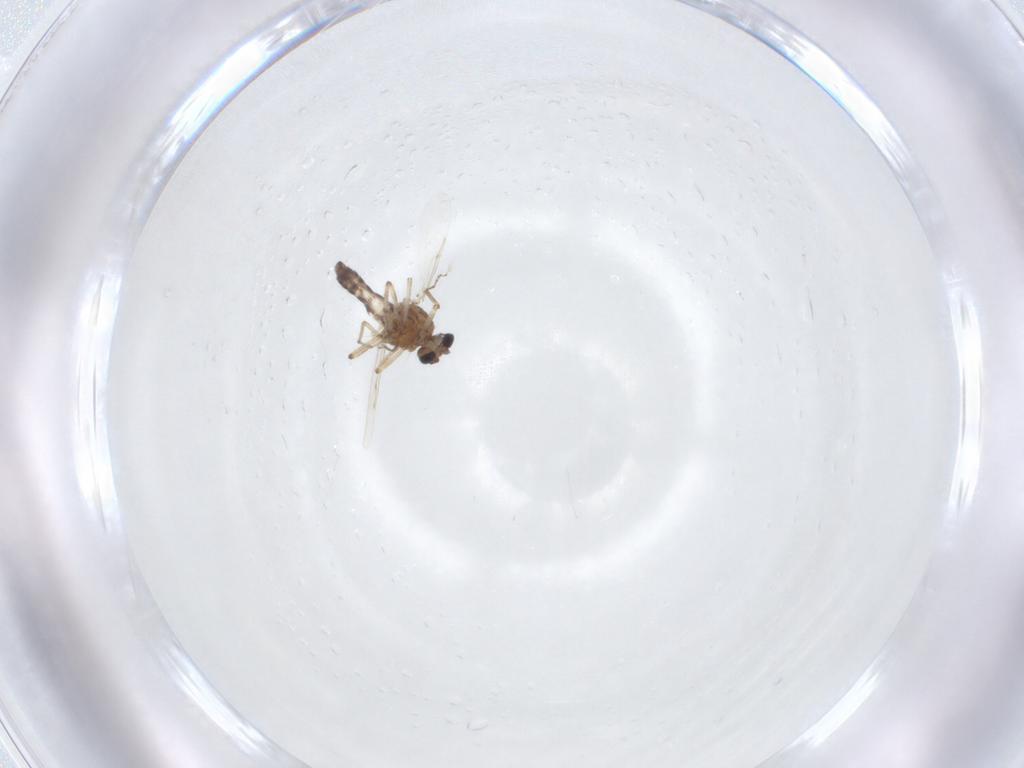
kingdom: Animalia
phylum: Arthropoda
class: Insecta
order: Diptera
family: Ceratopogonidae
